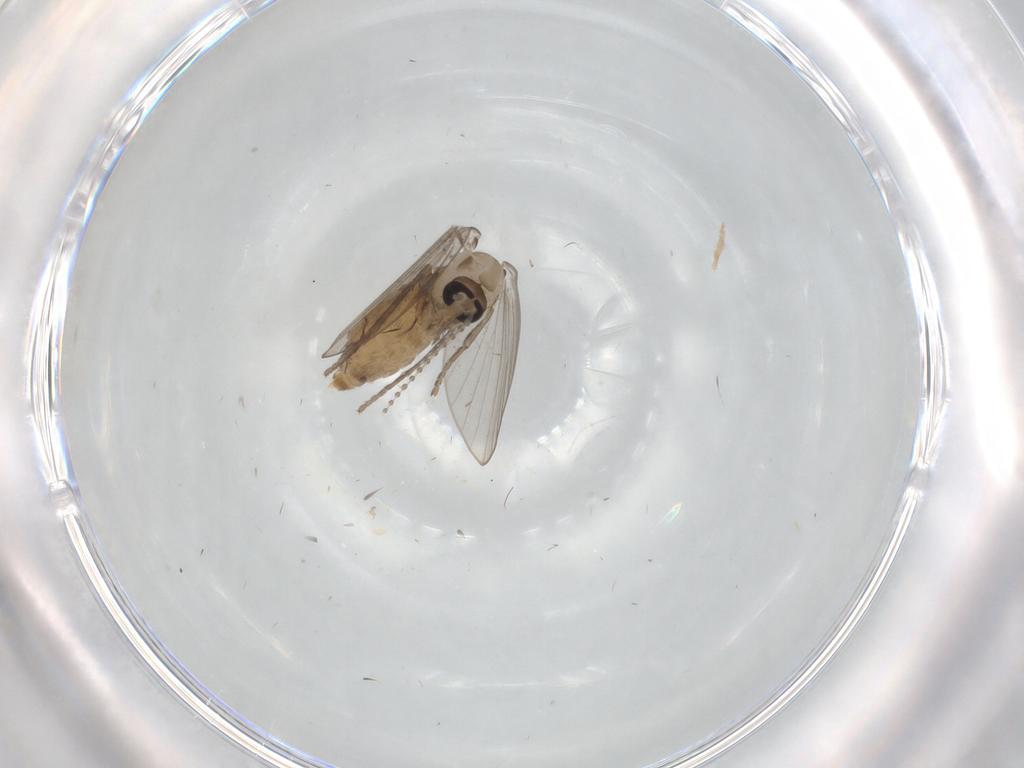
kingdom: Animalia
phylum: Arthropoda
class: Insecta
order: Diptera
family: Psychodidae
